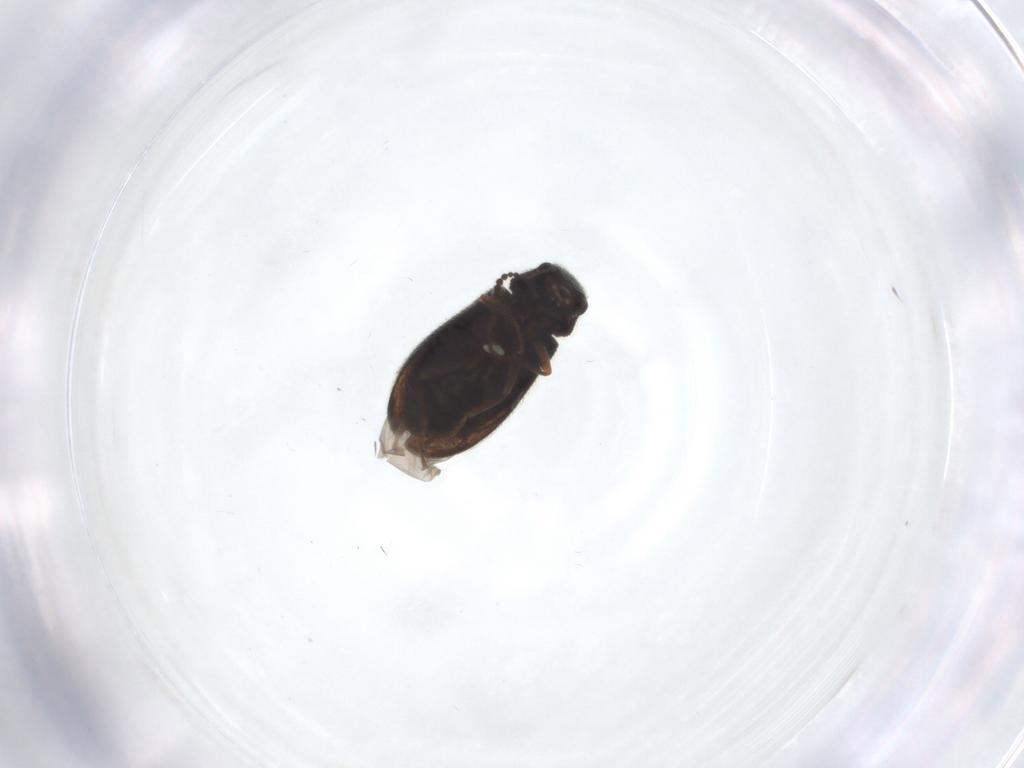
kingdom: Animalia
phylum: Arthropoda
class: Insecta
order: Coleoptera
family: Melyridae
